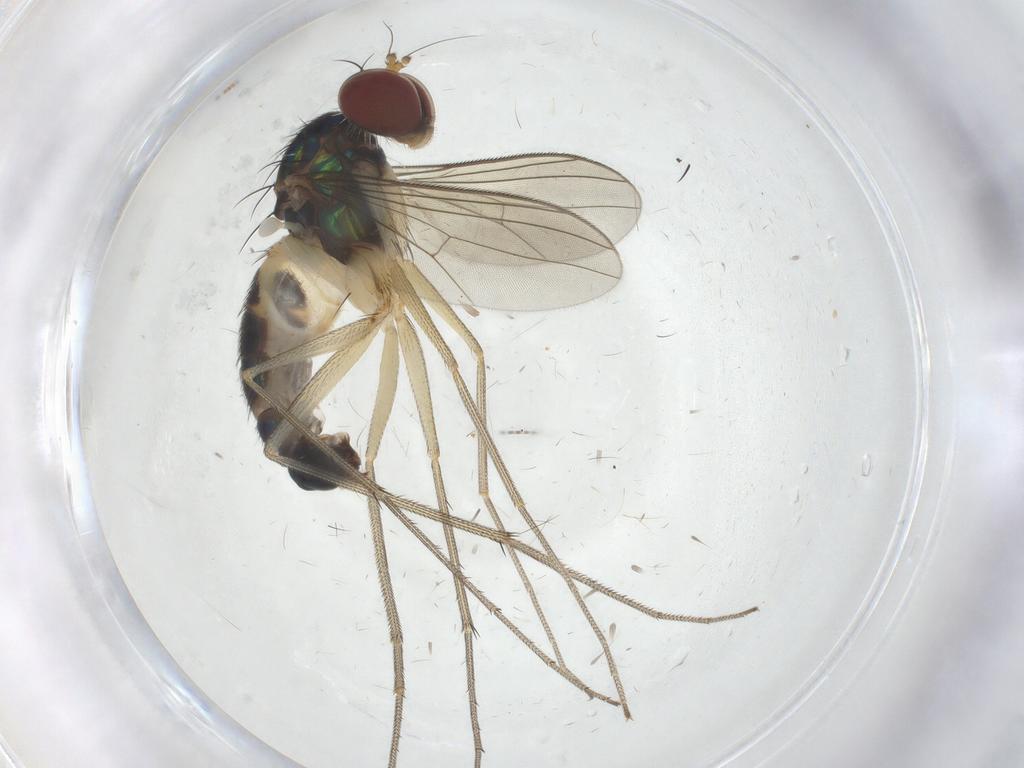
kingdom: Animalia
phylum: Arthropoda
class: Insecta
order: Diptera
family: Dolichopodidae
